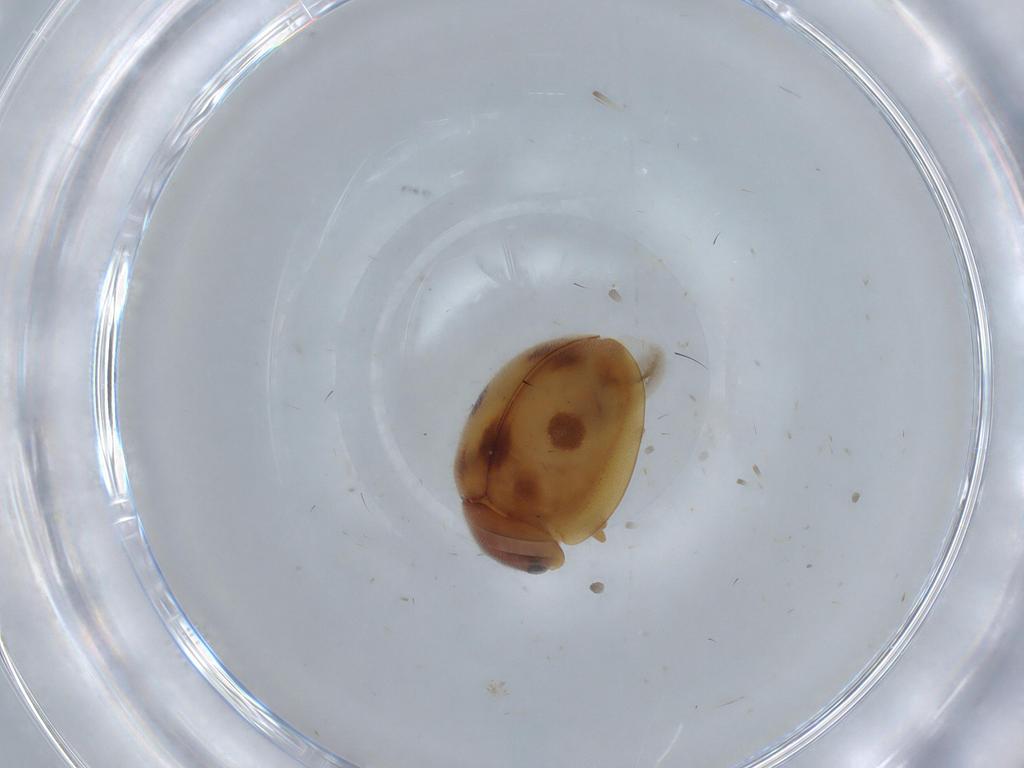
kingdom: Animalia
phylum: Arthropoda
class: Insecta
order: Coleoptera
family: Coccinellidae
